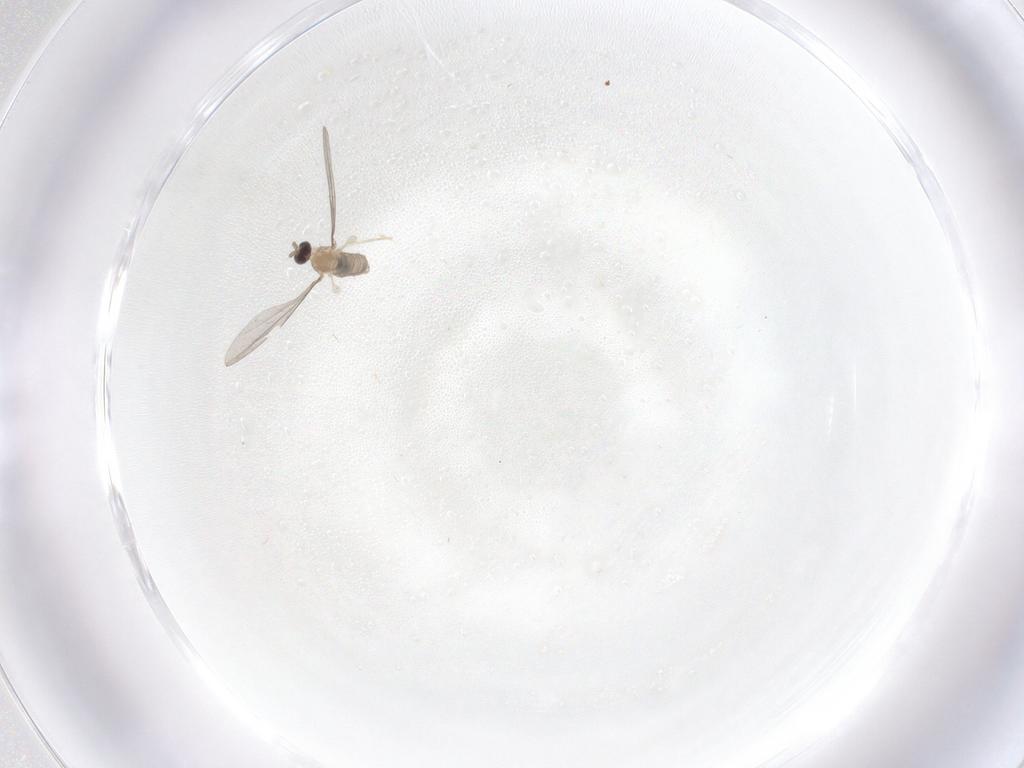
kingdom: Animalia
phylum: Arthropoda
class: Insecta
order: Diptera
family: Cecidomyiidae
